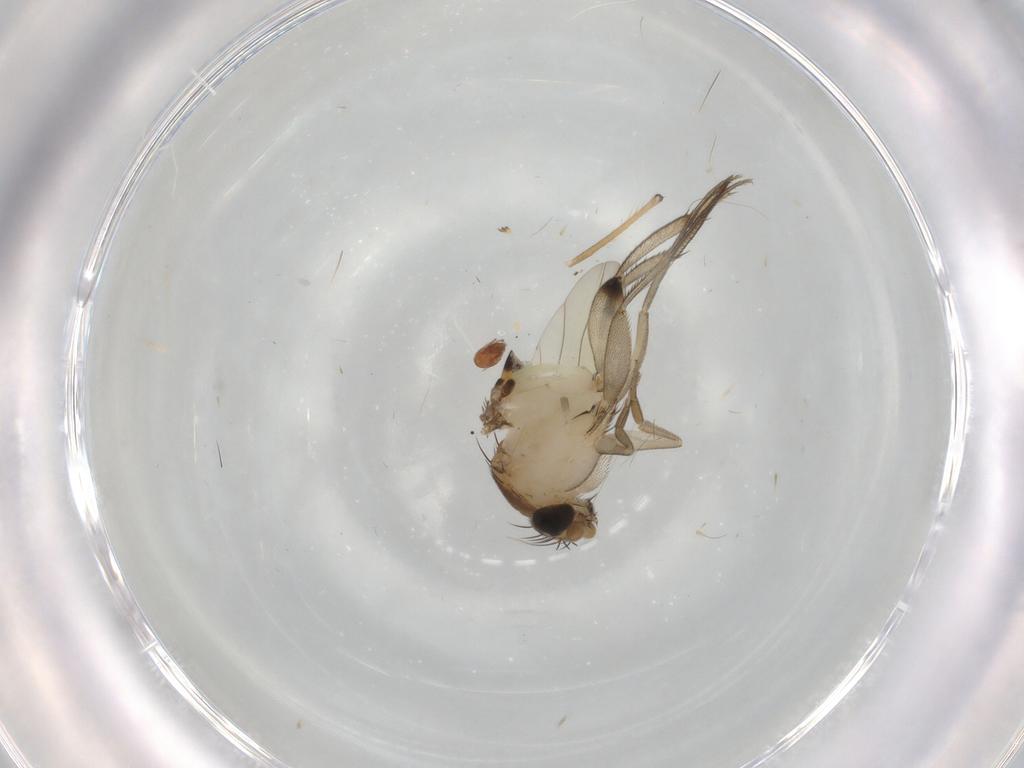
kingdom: Animalia
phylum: Arthropoda
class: Insecta
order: Diptera
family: Phoridae
